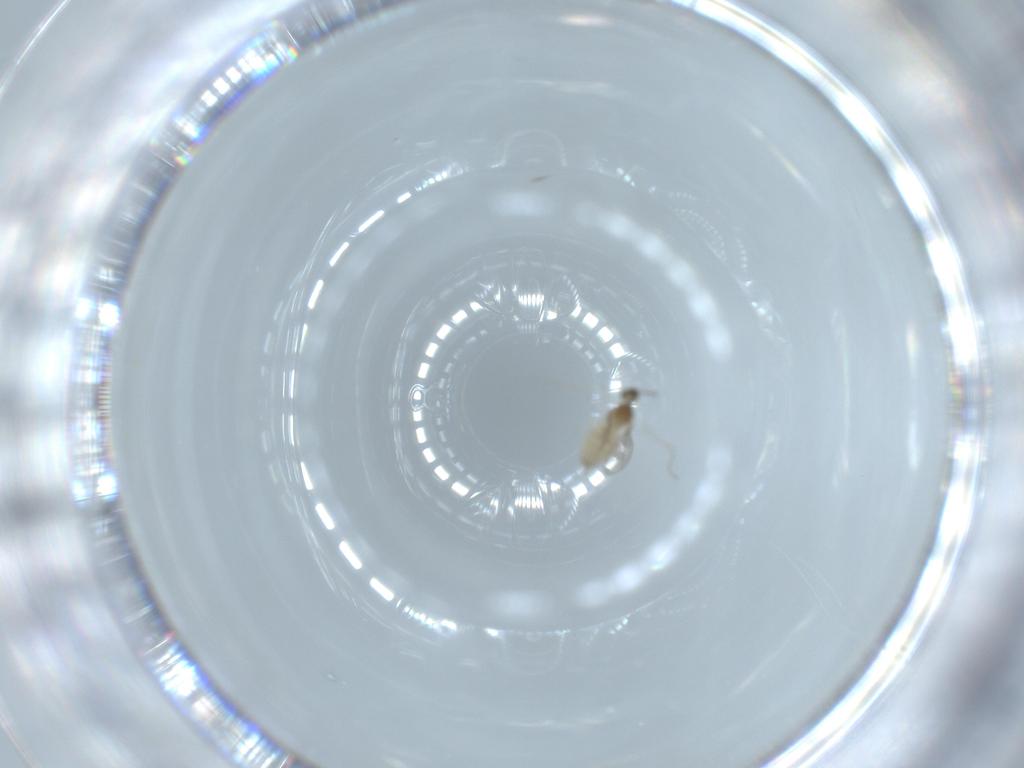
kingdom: Animalia
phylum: Arthropoda
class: Insecta
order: Diptera
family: Cecidomyiidae
